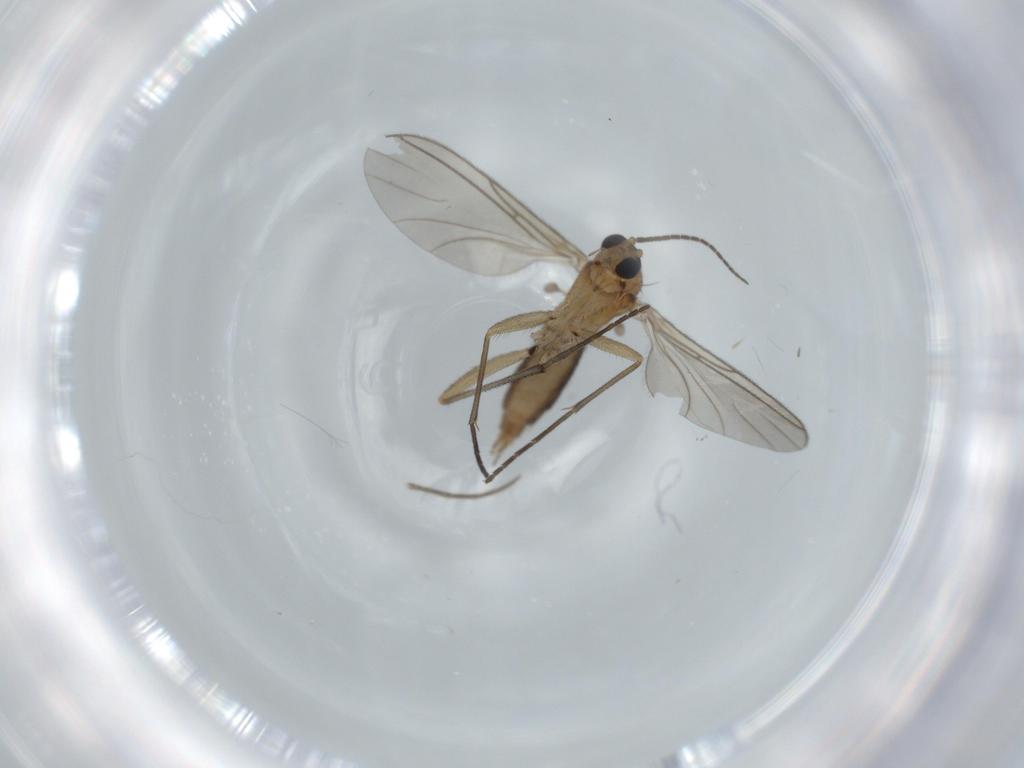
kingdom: Animalia
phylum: Arthropoda
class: Insecta
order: Diptera
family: Sciaridae
